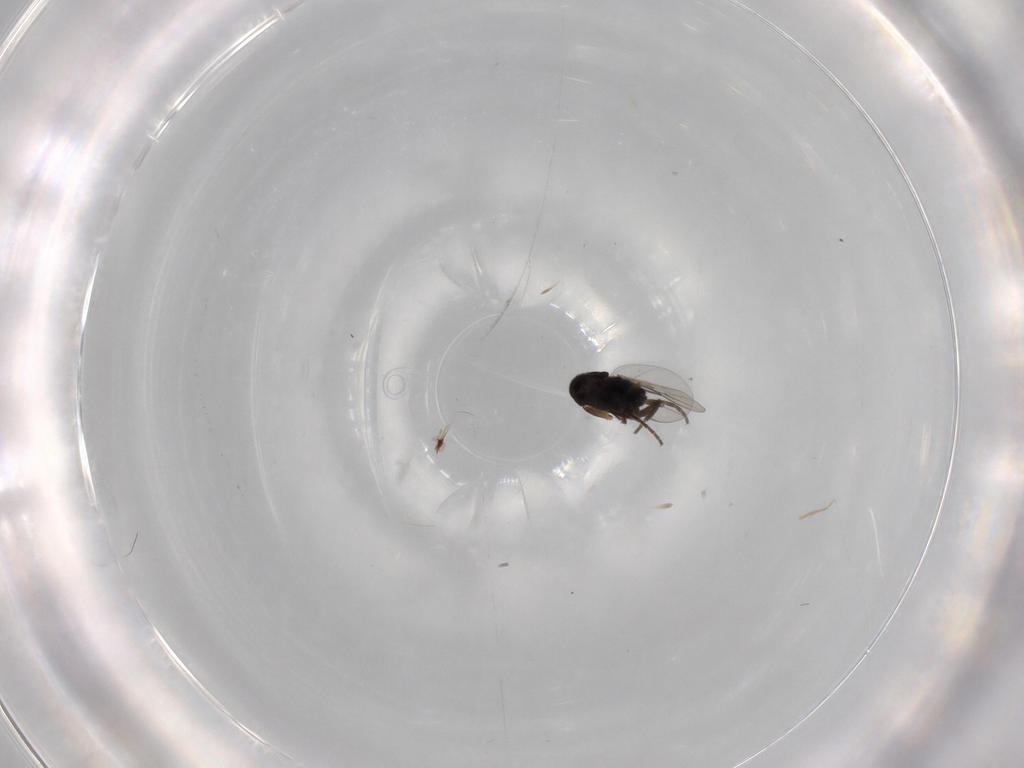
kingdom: Animalia
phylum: Arthropoda
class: Insecta
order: Diptera
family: Phoridae
